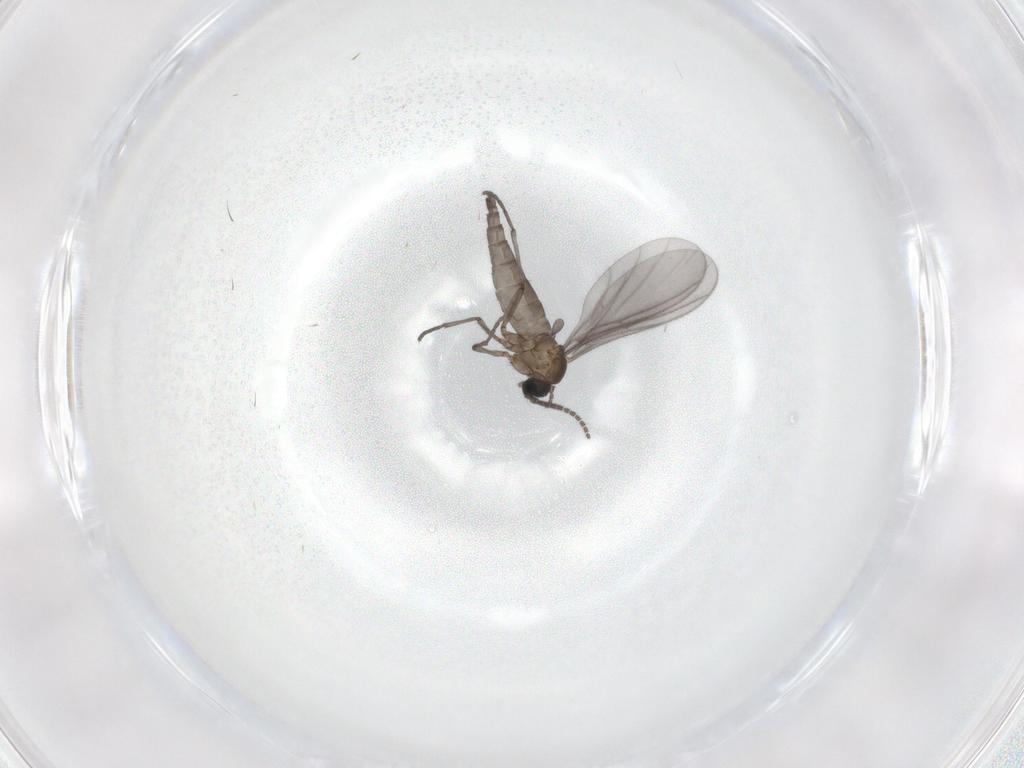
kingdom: Animalia
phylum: Arthropoda
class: Insecta
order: Diptera
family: Sciaridae
